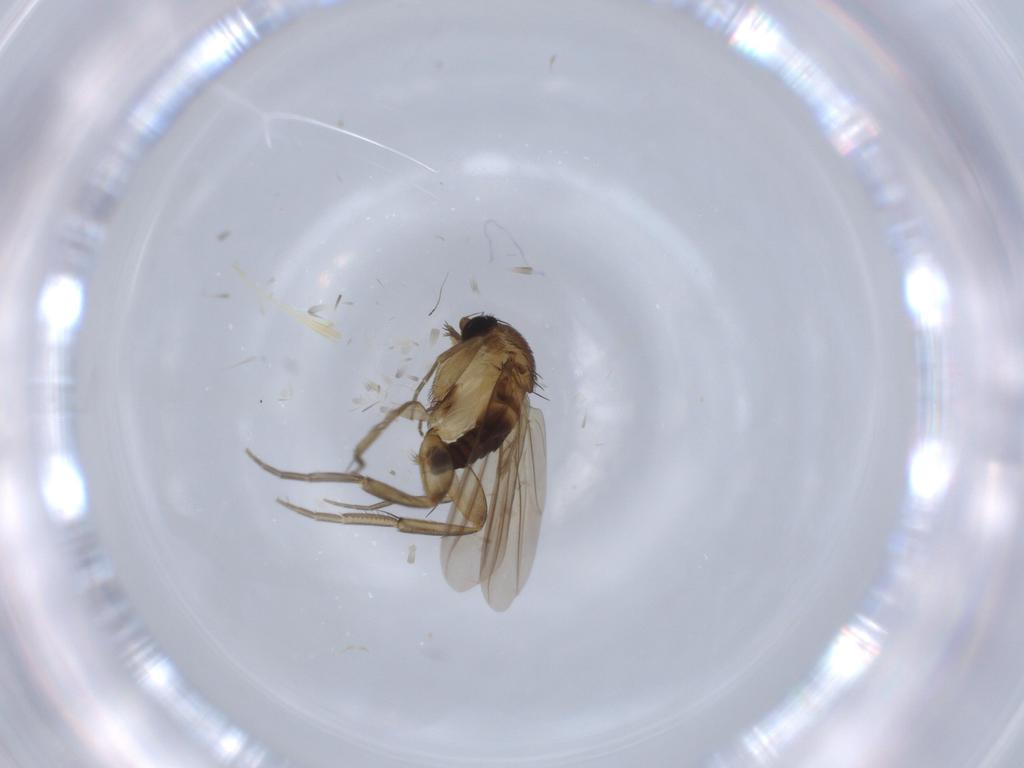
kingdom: Animalia
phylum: Arthropoda
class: Insecta
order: Diptera
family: Phoridae
